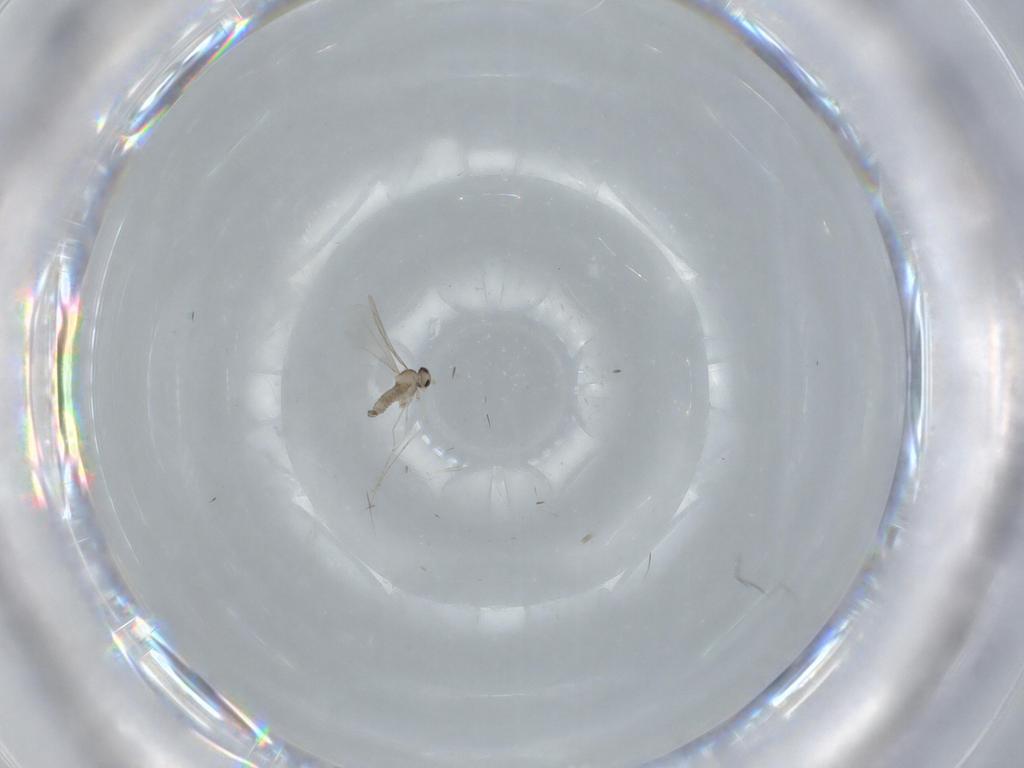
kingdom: Animalia
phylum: Arthropoda
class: Insecta
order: Diptera
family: Cecidomyiidae
